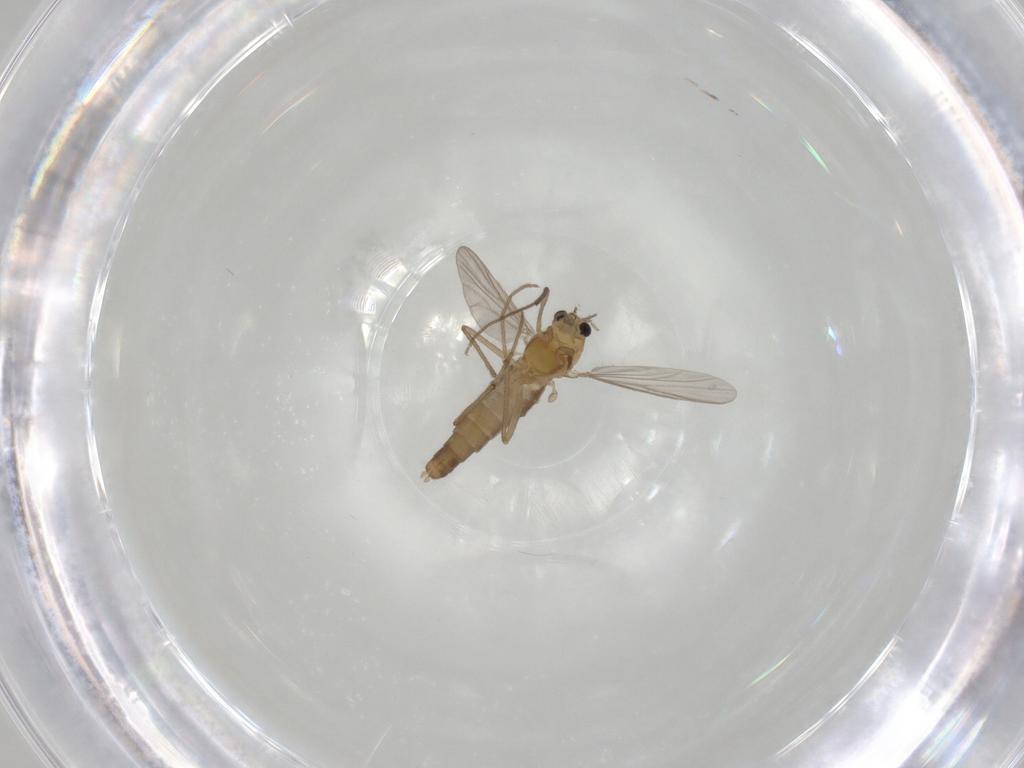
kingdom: Animalia
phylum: Arthropoda
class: Insecta
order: Diptera
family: Chironomidae
